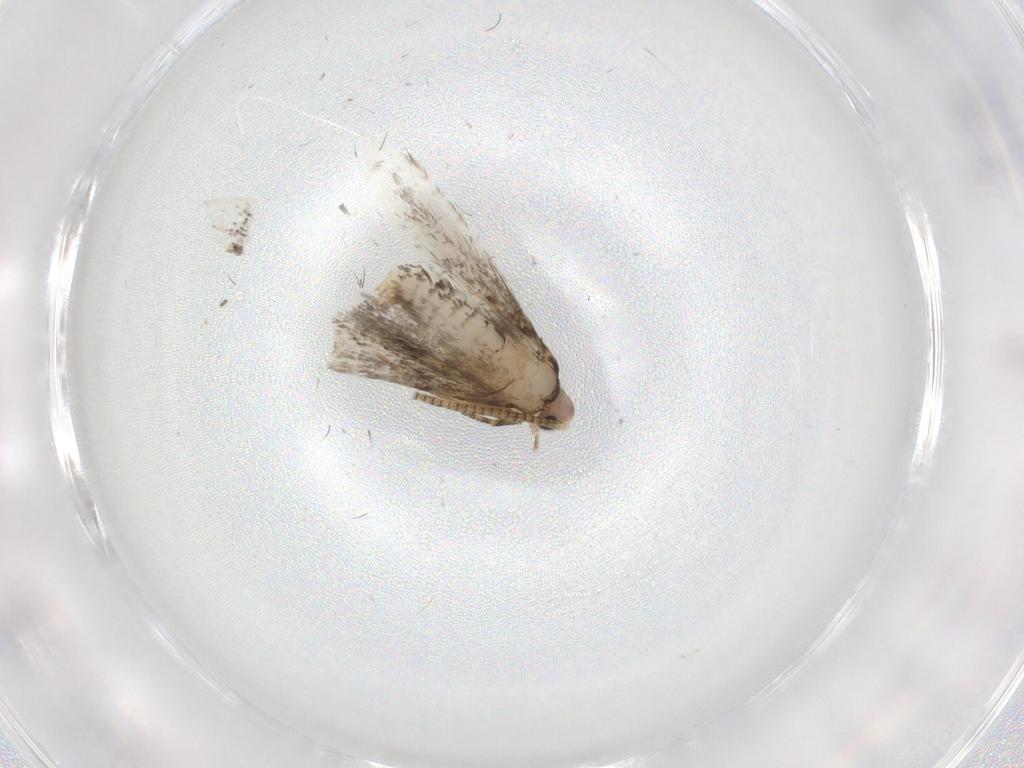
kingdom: Animalia
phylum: Arthropoda
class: Insecta
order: Lepidoptera
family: Tineidae
